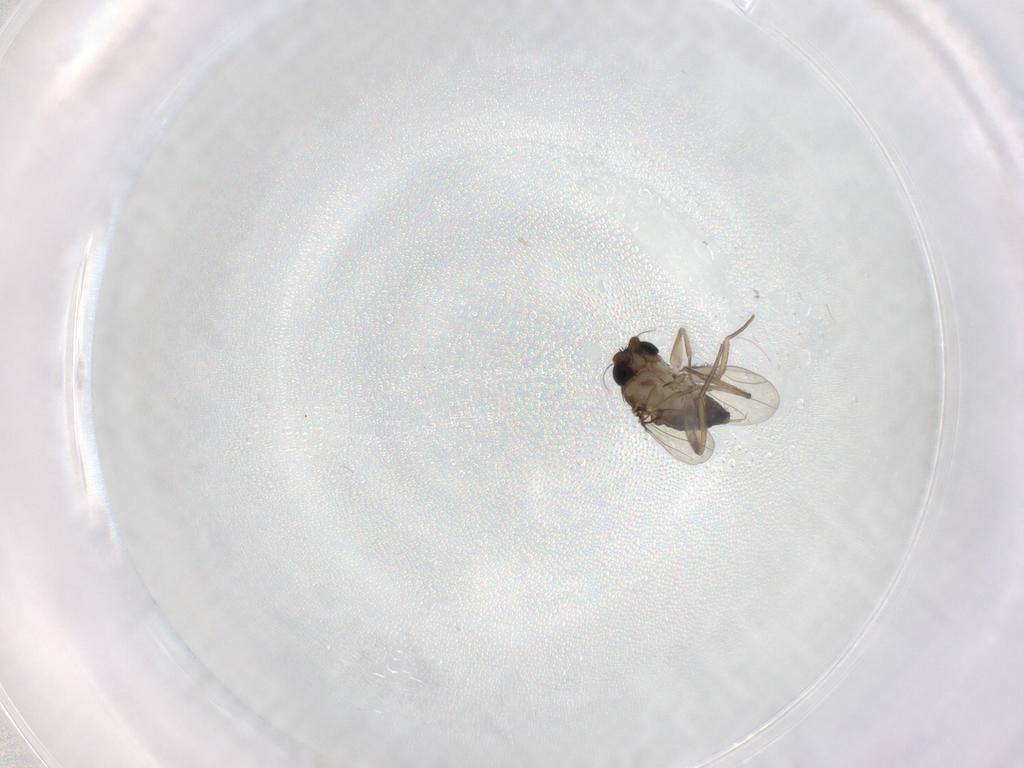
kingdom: Animalia
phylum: Arthropoda
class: Insecta
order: Diptera
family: Phoridae
